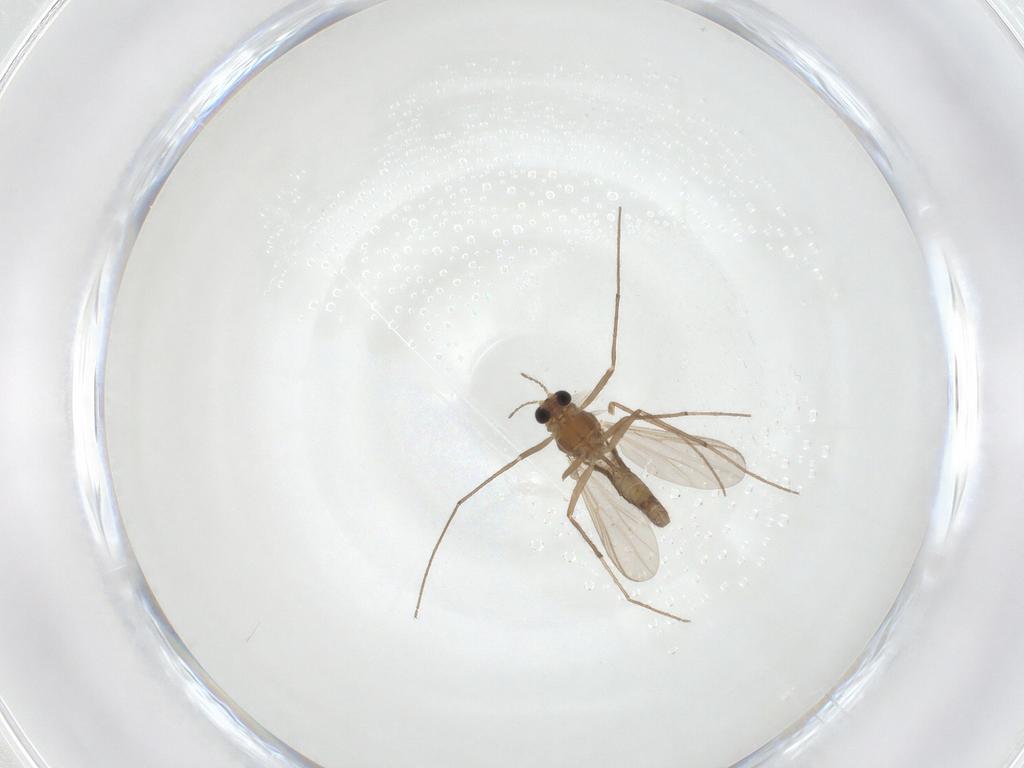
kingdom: Animalia
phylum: Arthropoda
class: Insecta
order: Diptera
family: Chironomidae
